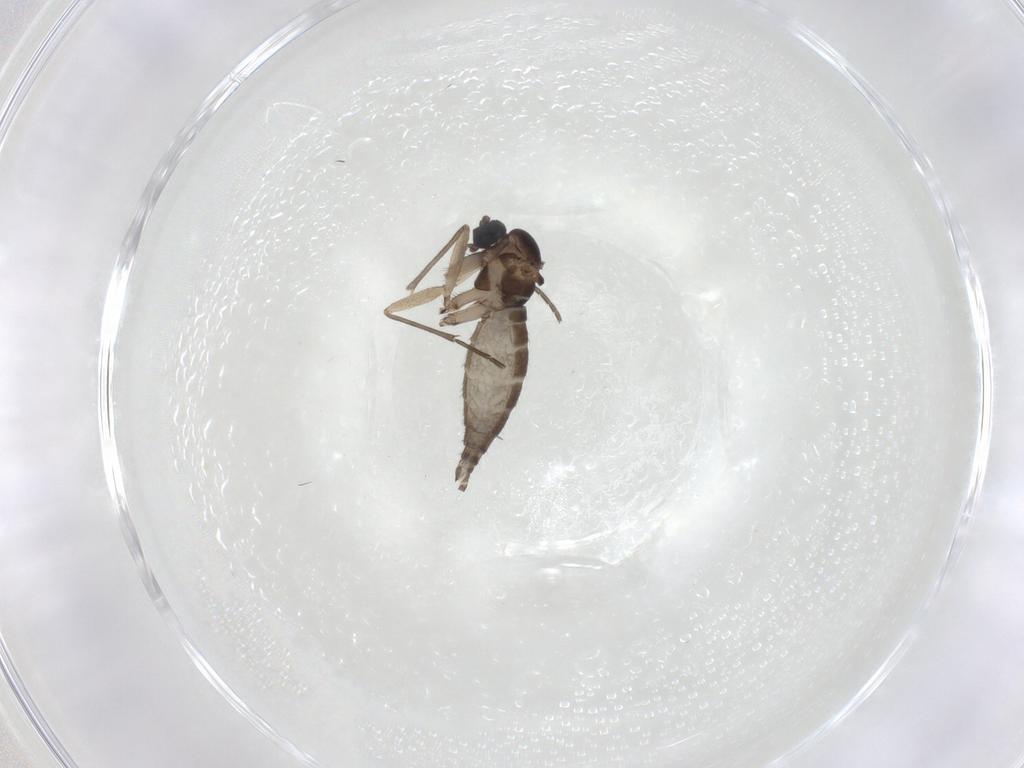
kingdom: Animalia
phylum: Arthropoda
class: Insecta
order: Diptera
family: Sciaridae
